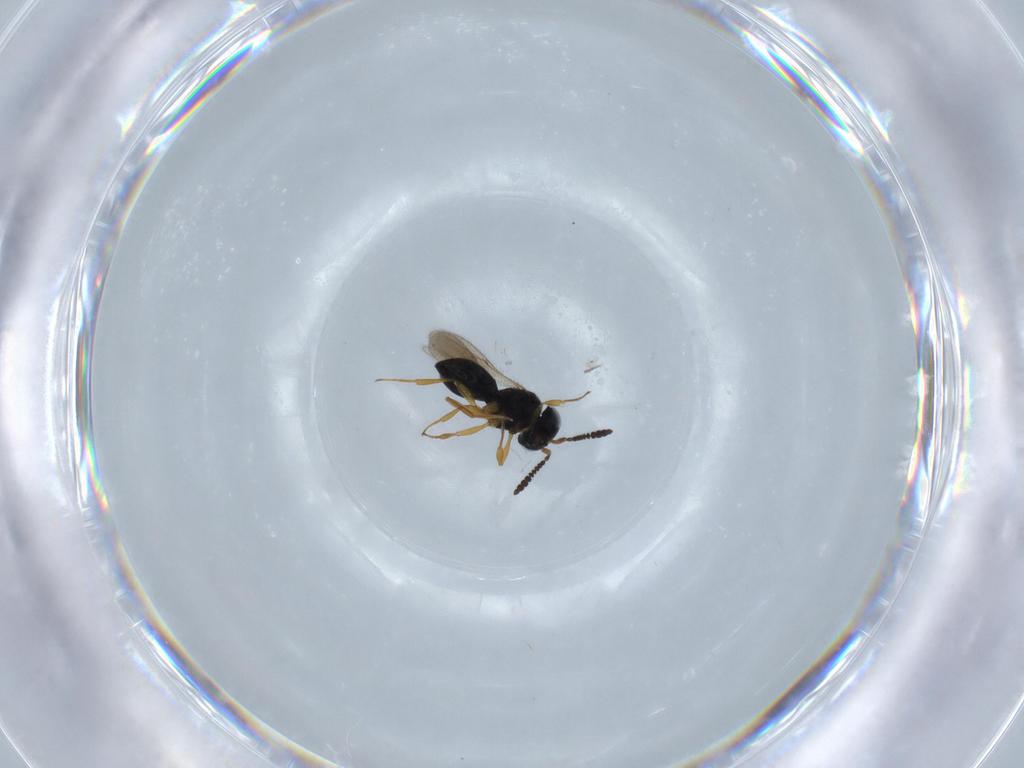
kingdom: Animalia
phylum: Arthropoda
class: Insecta
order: Hymenoptera
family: Scelionidae
